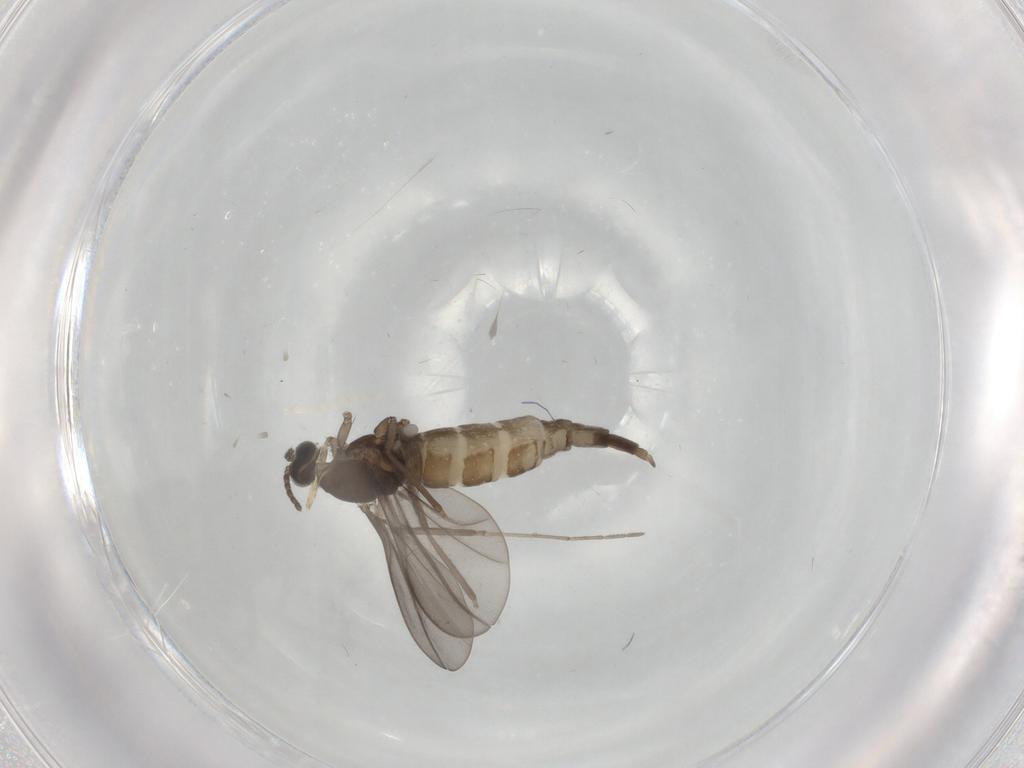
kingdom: Animalia
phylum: Arthropoda
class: Insecta
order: Diptera
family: Cecidomyiidae
